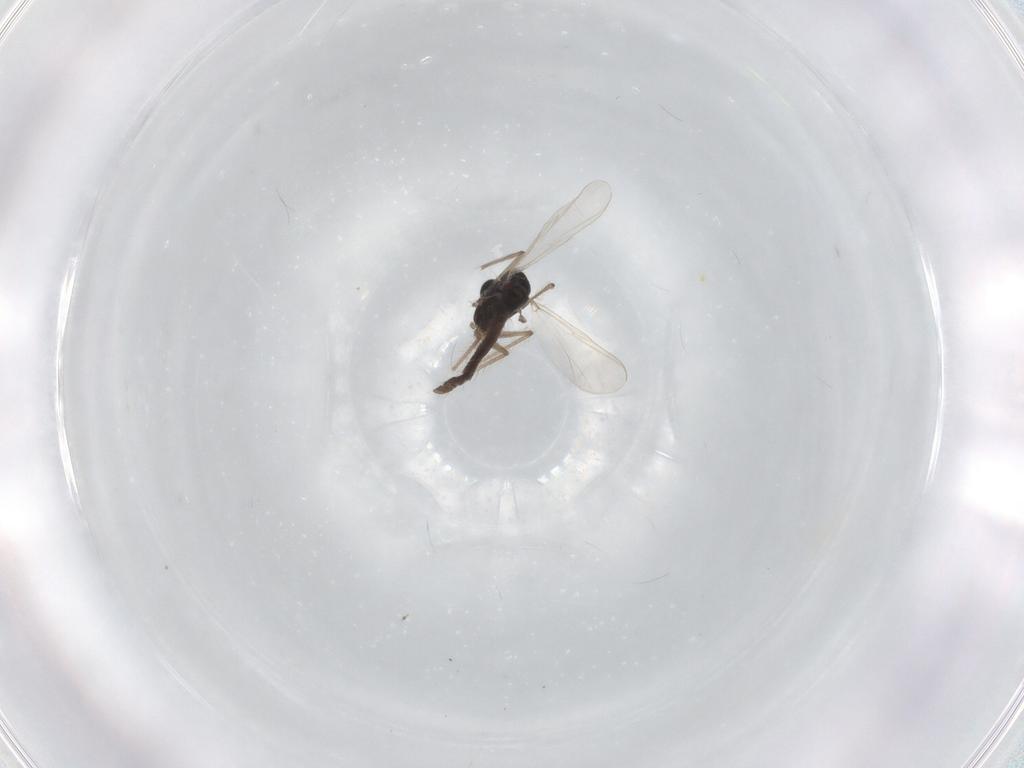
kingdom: Animalia
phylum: Arthropoda
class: Insecta
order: Diptera
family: Chironomidae
